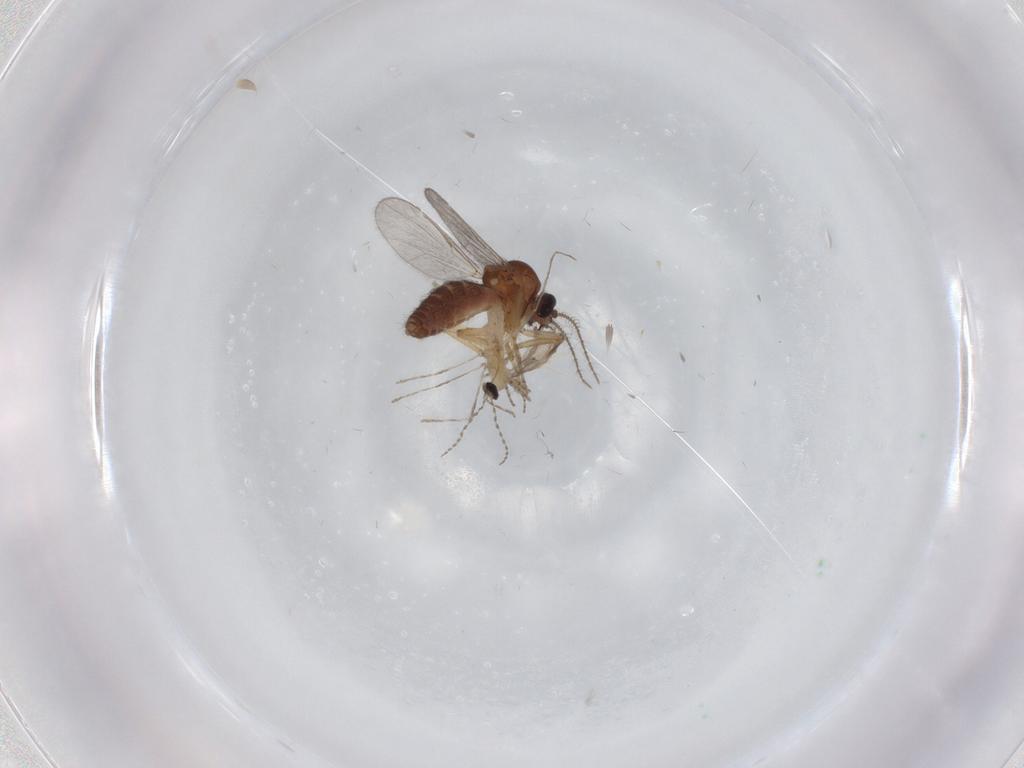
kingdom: Animalia
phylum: Arthropoda
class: Insecta
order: Diptera
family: Cecidomyiidae
